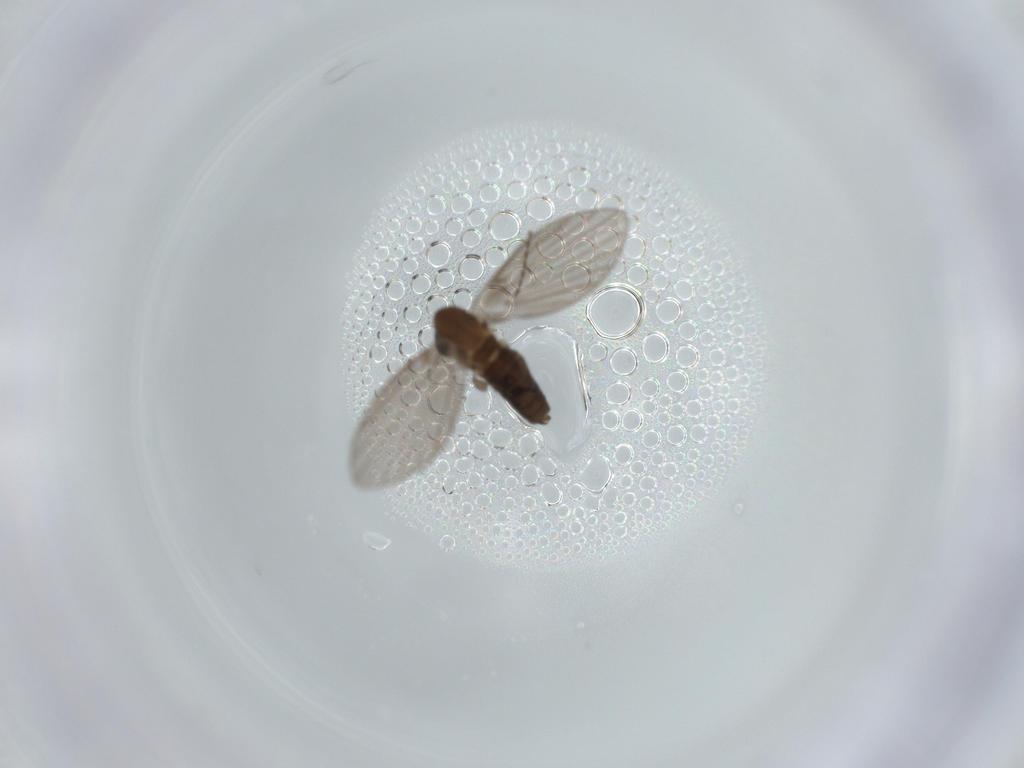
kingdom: Animalia
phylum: Arthropoda
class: Insecta
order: Diptera
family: Psychodidae
